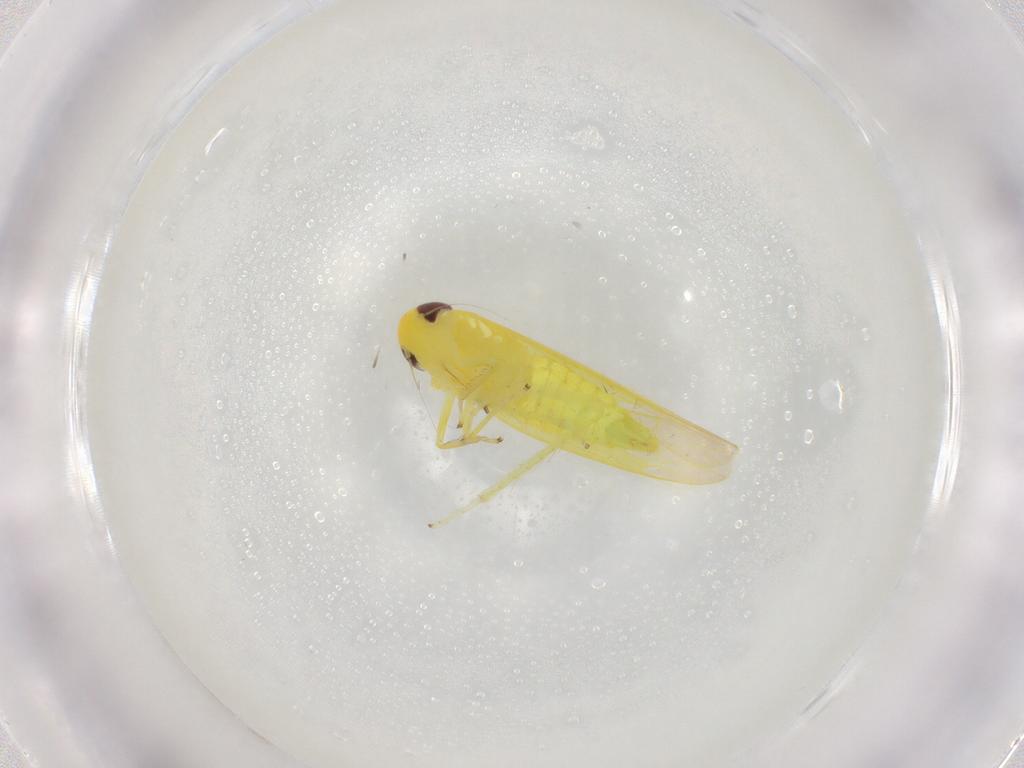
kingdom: Animalia
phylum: Arthropoda
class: Insecta
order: Hemiptera
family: Cicadellidae
